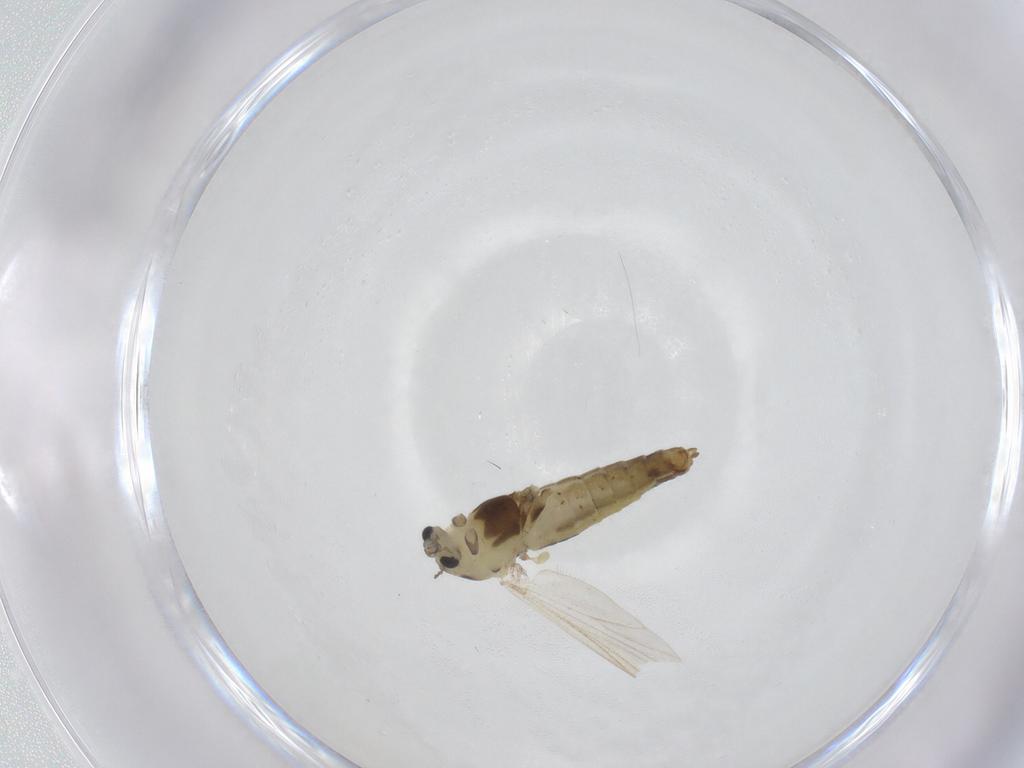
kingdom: Animalia
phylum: Arthropoda
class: Insecta
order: Diptera
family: Chironomidae
